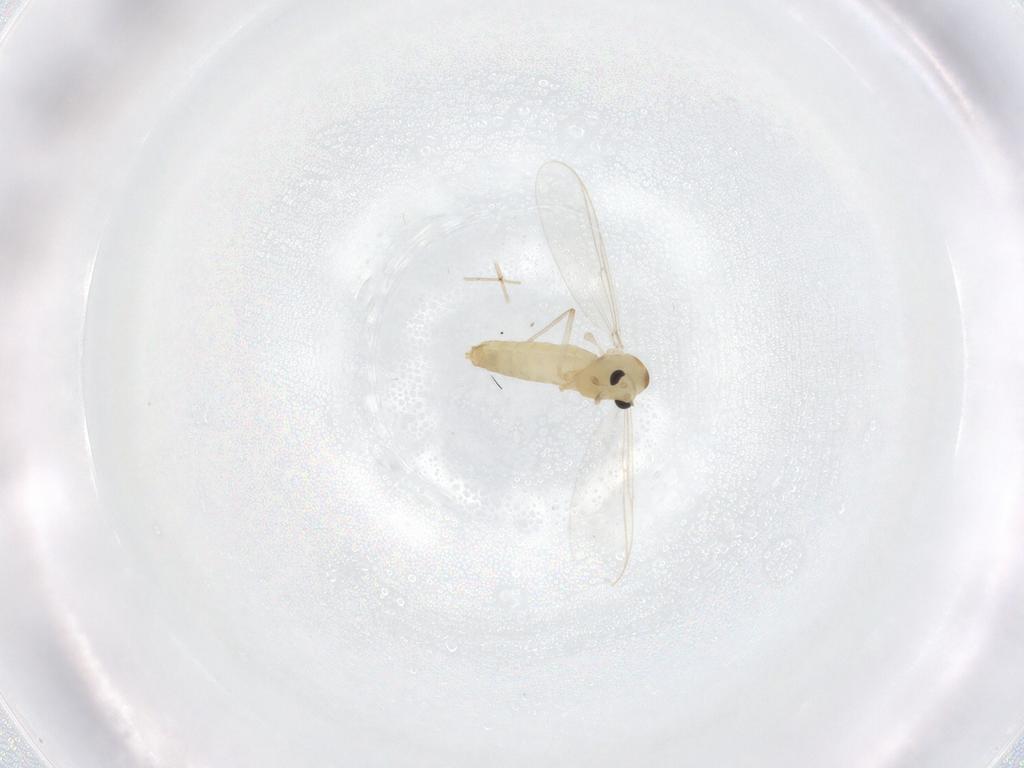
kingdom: Animalia
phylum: Arthropoda
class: Insecta
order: Diptera
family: Chironomidae
